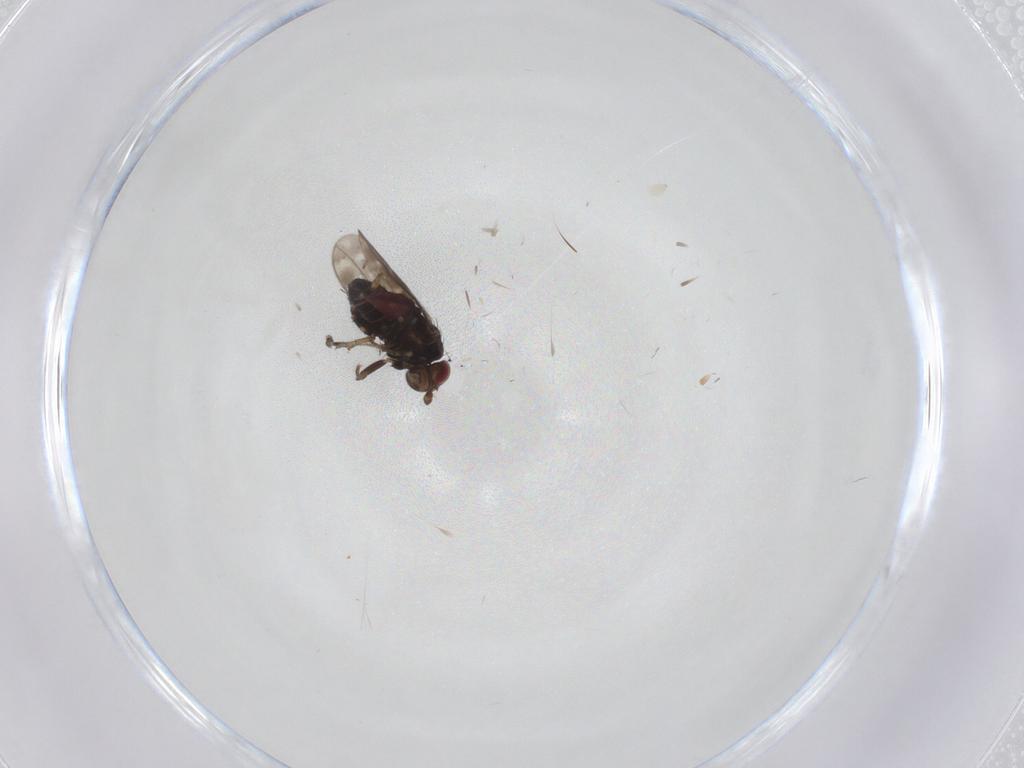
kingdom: Animalia
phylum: Arthropoda
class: Insecta
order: Diptera
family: Sphaeroceridae
